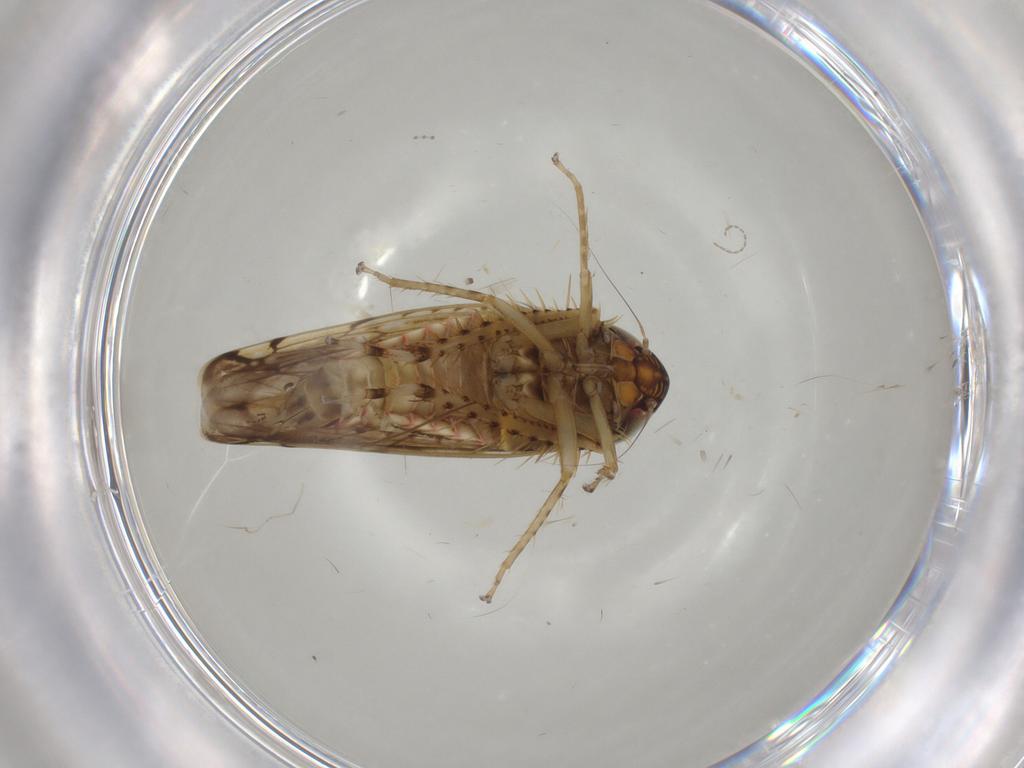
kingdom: Animalia
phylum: Arthropoda
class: Insecta
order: Hemiptera
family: Cicadellidae
